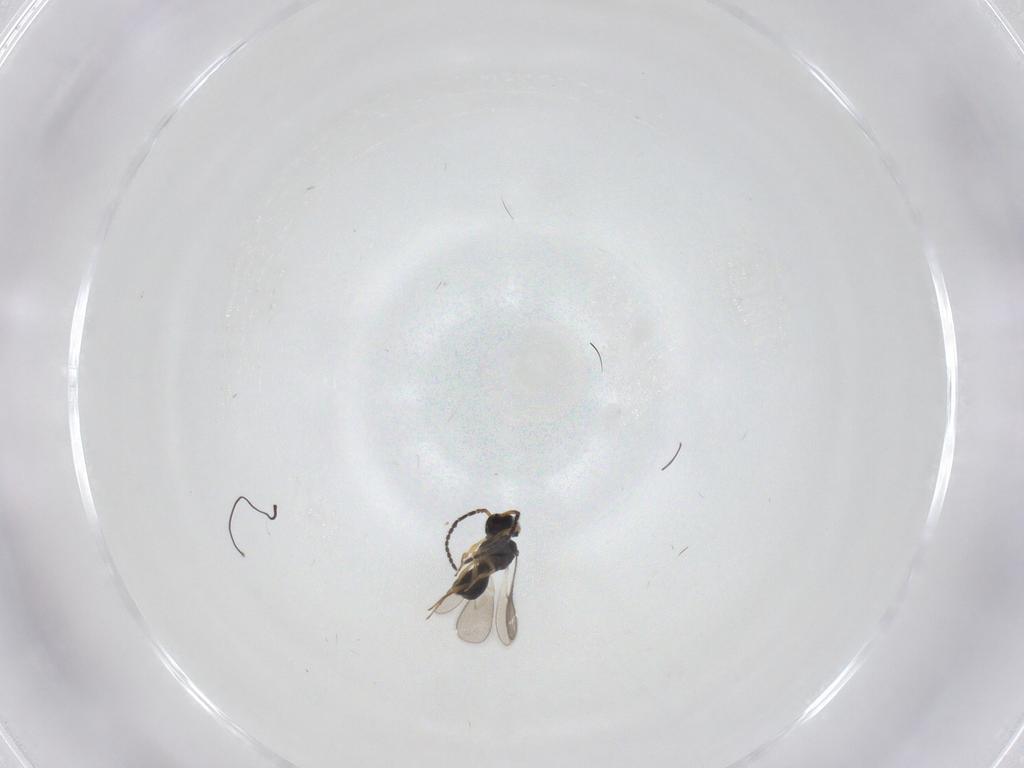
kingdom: Animalia
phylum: Arthropoda
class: Insecta
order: Hymenoptera
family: Scelionidae
